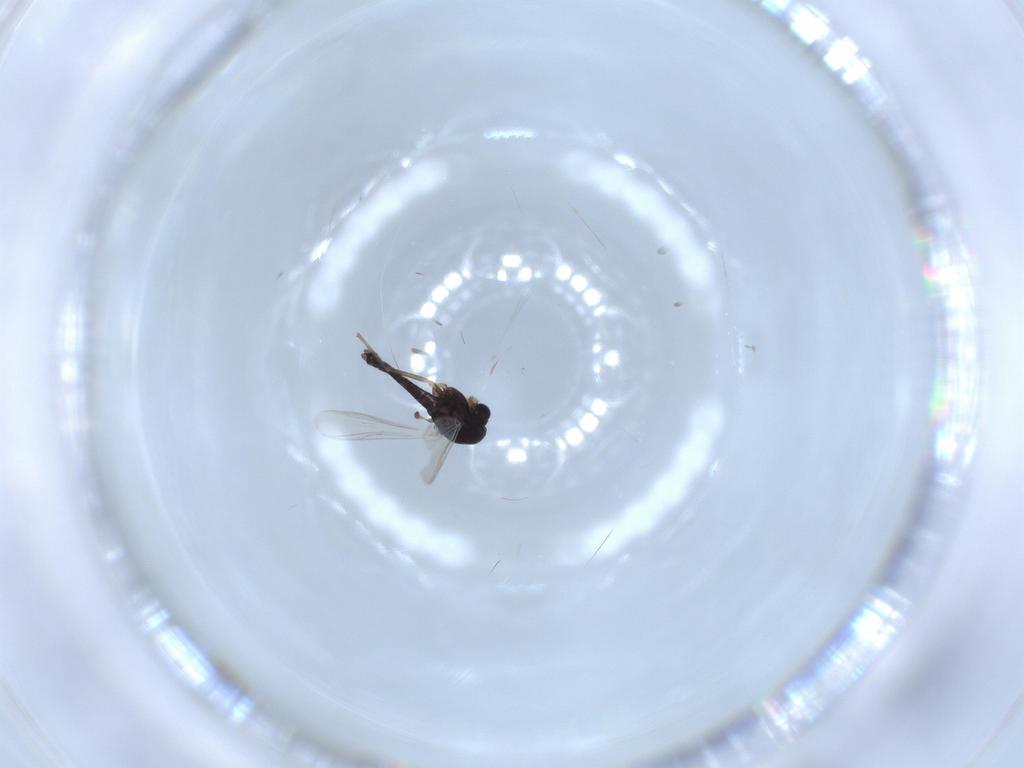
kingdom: Animalia
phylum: Arthropoda
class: Insecta
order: Diptera
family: Chironomidae
